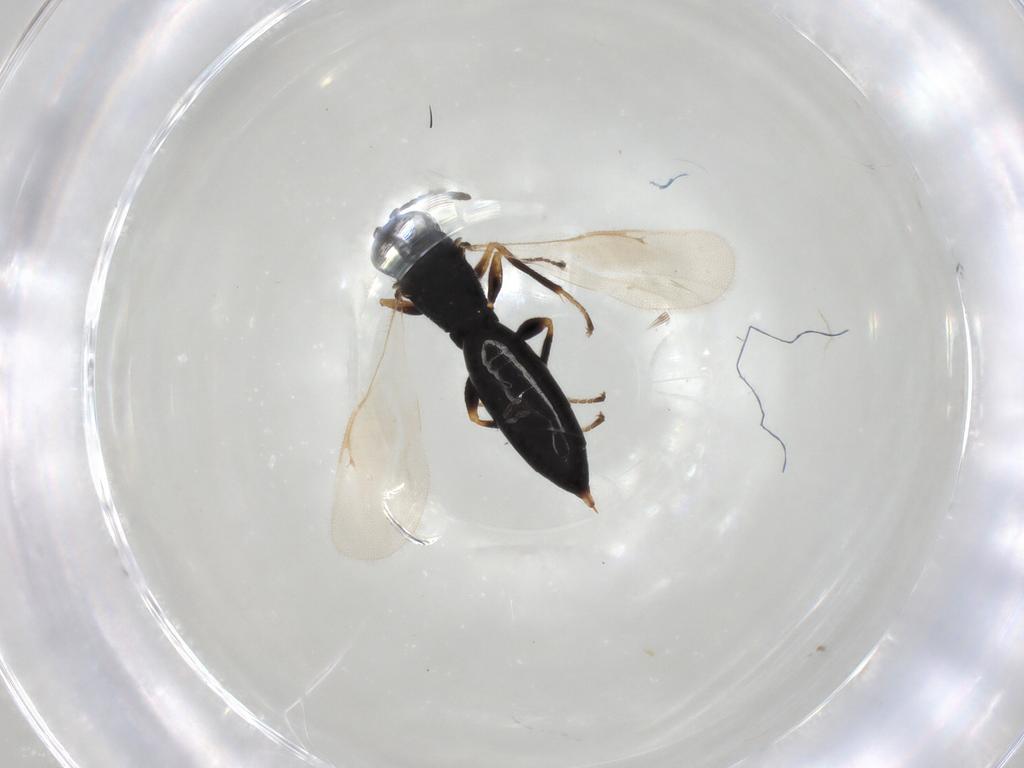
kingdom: Animalia
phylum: Arthropoda
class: Insecta
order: Hymenoptera
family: Eurytomidae
